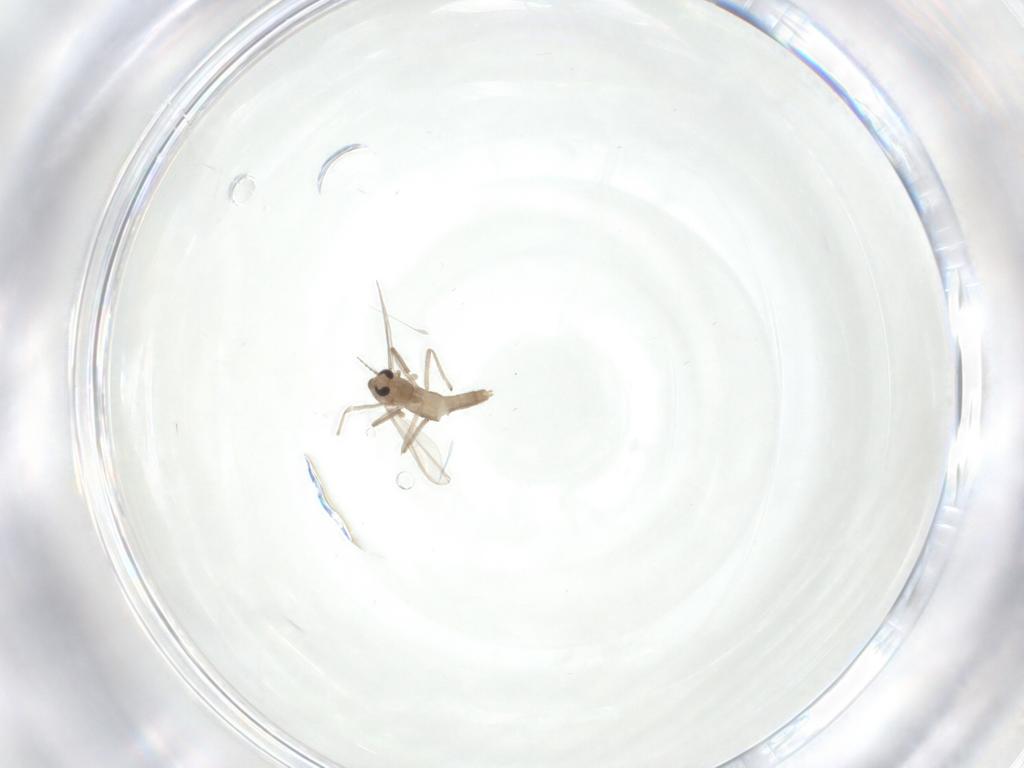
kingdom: Animalia
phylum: Arthropoda
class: Insecta
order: Diptera
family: Chironomidae
